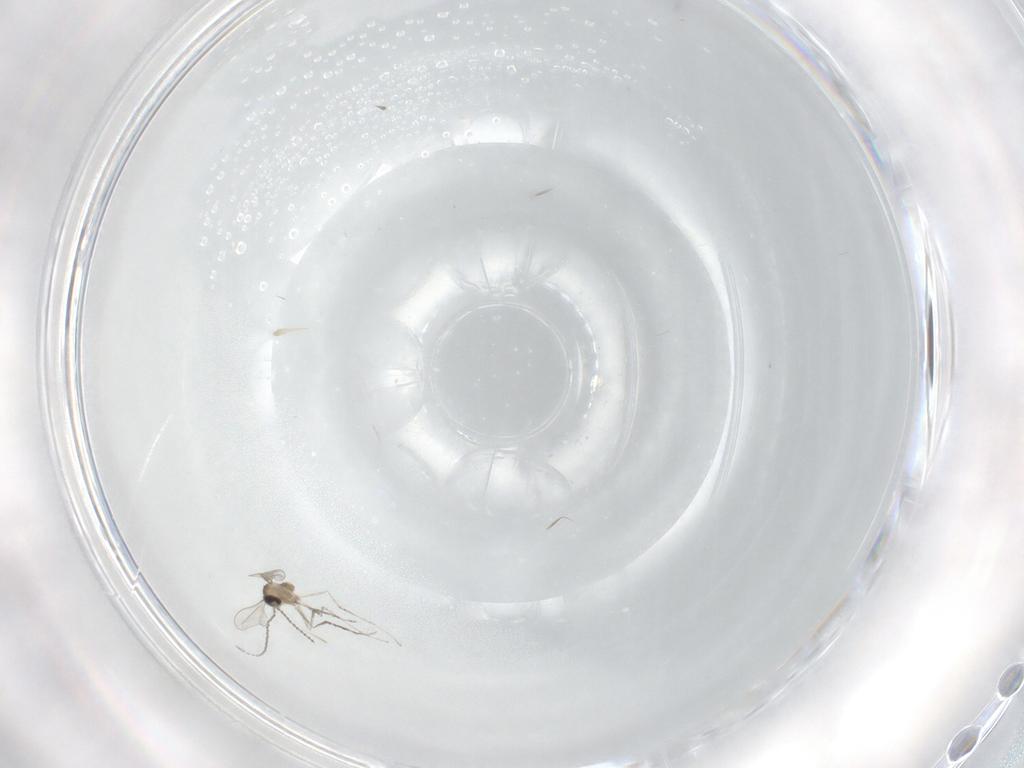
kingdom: Animalia
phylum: Arthropoda
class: Insecta
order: Diptera
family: Cecidomyiidae
